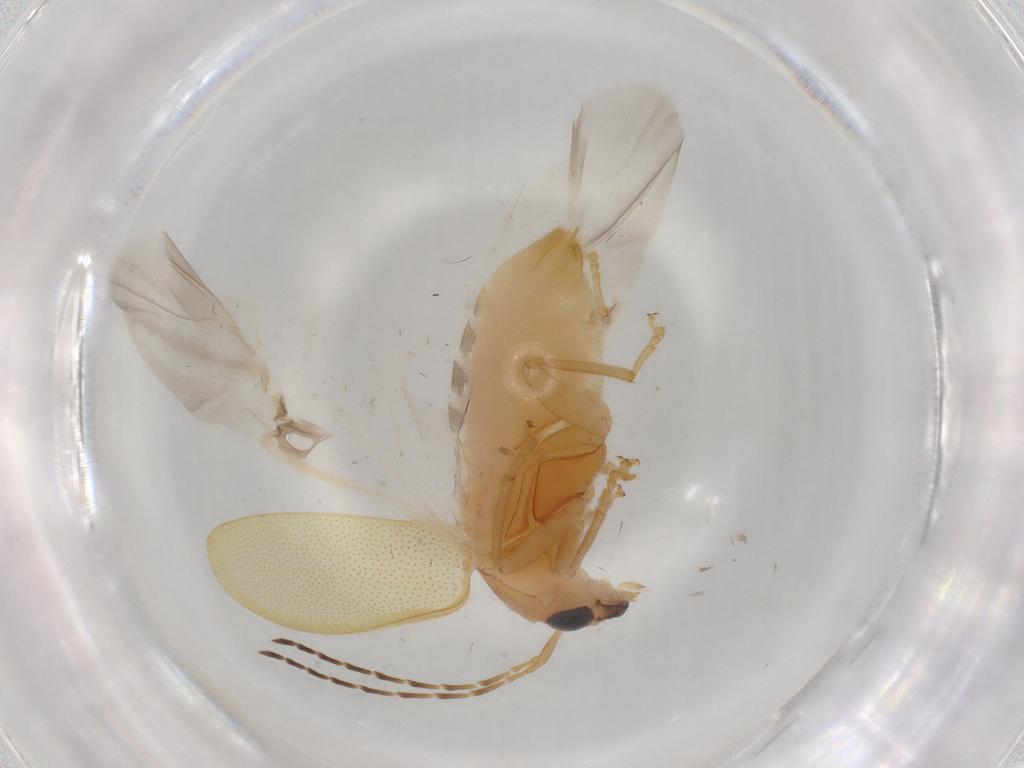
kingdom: Animalia
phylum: Arthropoda
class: Insecta
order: Coleoptera
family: Chrysomelidae
